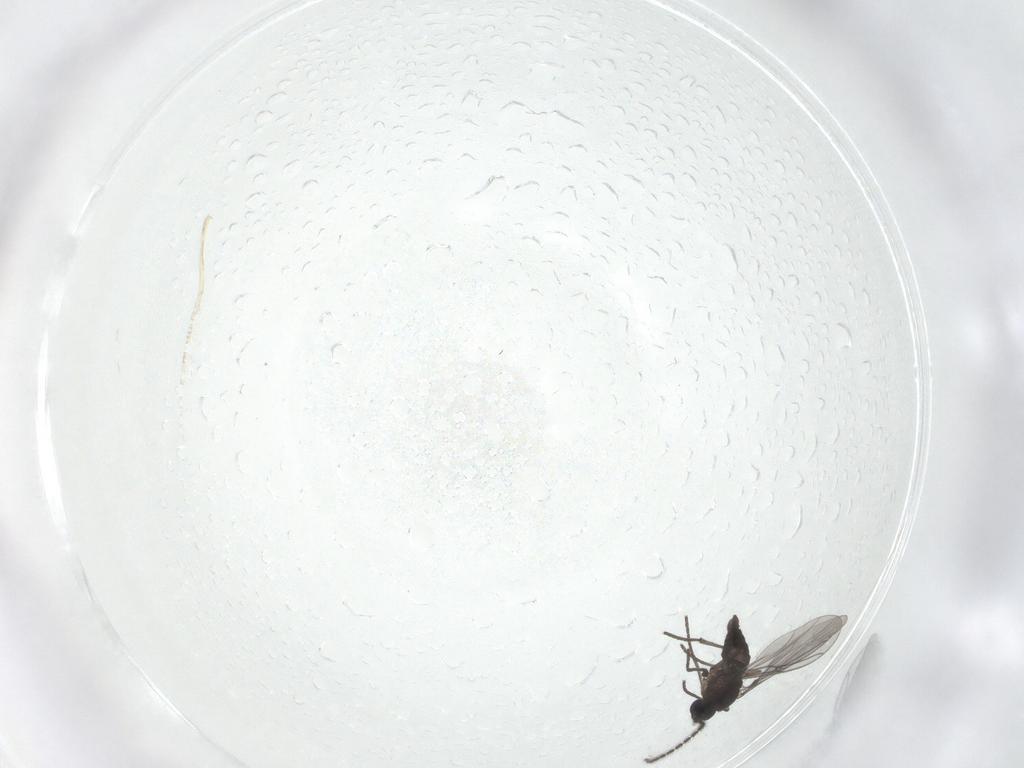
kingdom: Animalia
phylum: Arthropoda
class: Insecta
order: Diptera
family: Sciaridae
